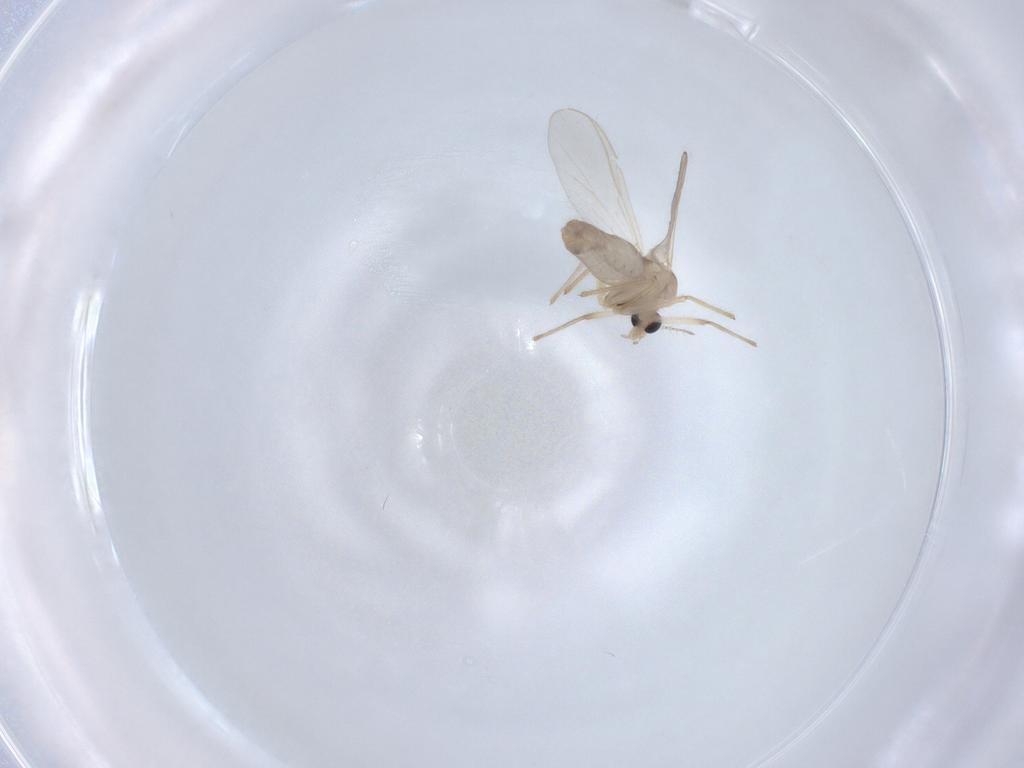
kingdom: Animalia
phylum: Arthropoda
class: Insecta
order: Diptera
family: Chironomidae
